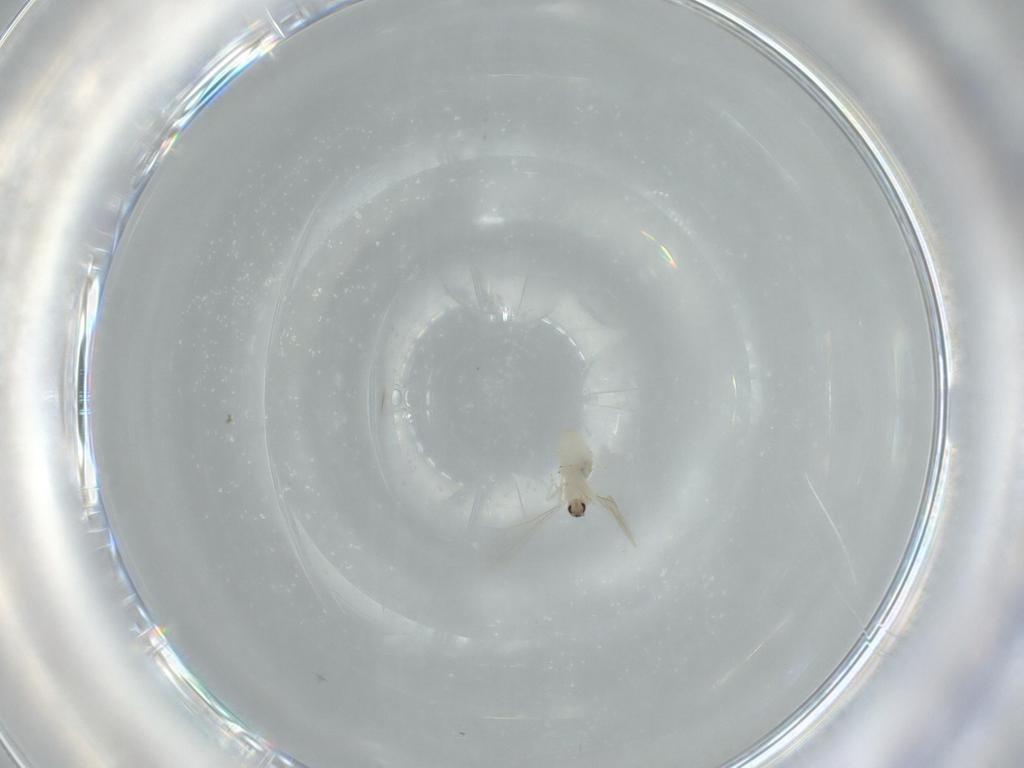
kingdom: Animalia
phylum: Arthropoda
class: Insecta
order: Diptera
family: Cecidomyiidae
